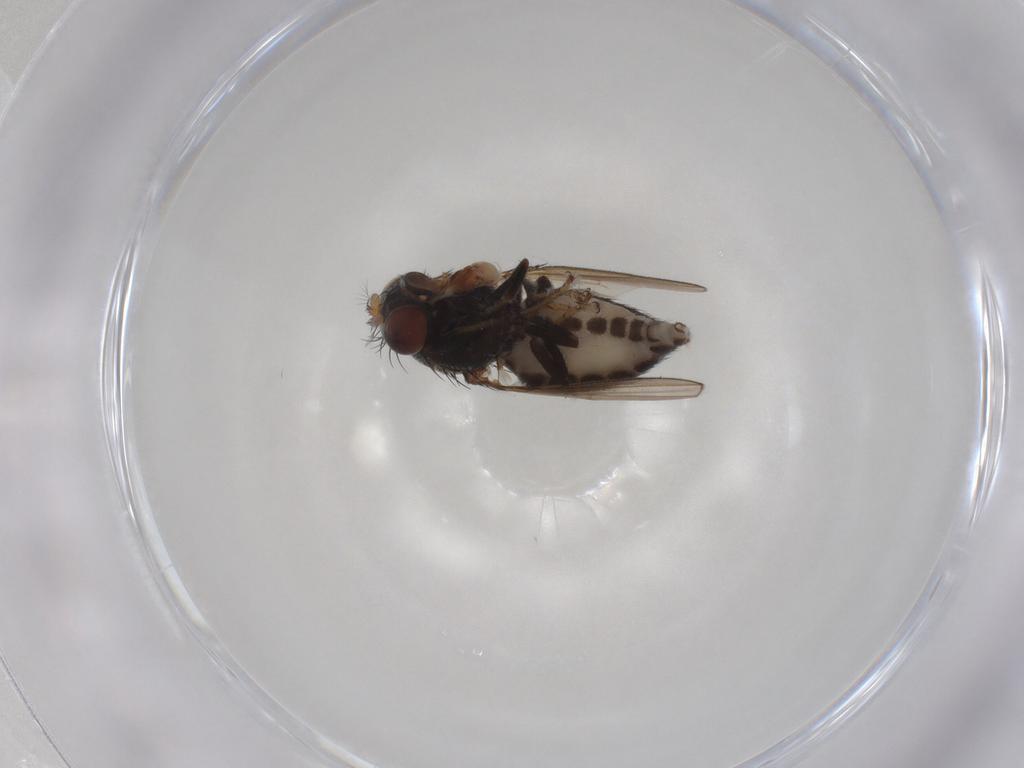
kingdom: Animalia
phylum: Arthropoda
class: Insecta
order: Diptera
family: Ephydridae
